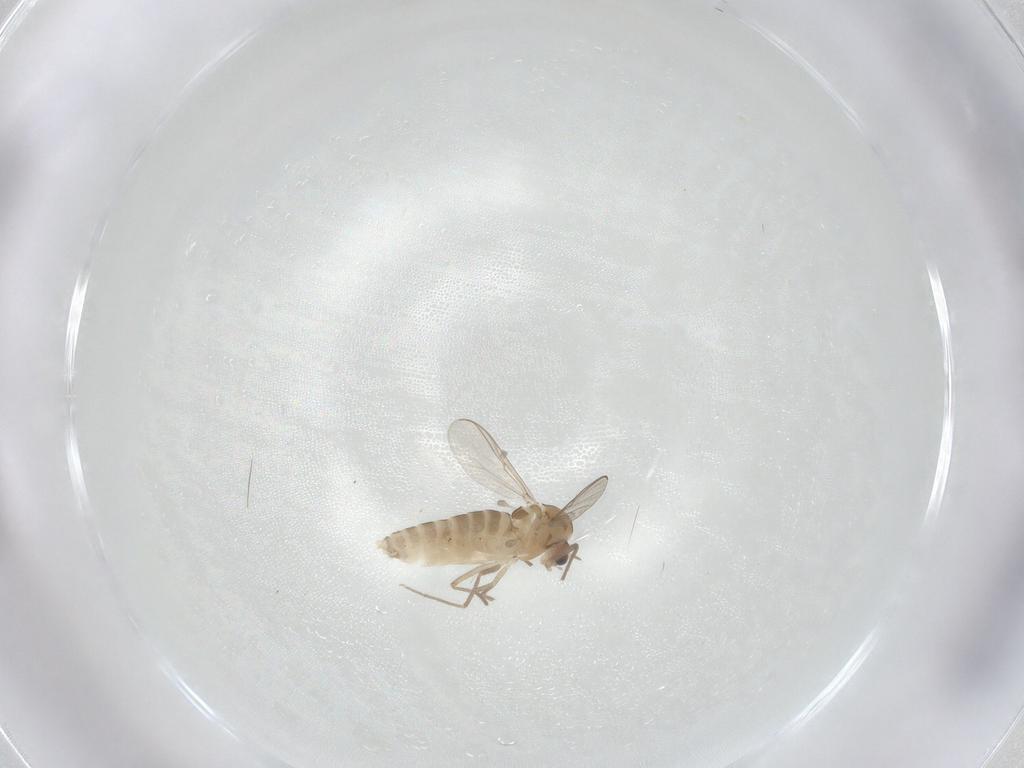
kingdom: Animalia
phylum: Arthropoda
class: Insecta
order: Diptera
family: Chironomidae
